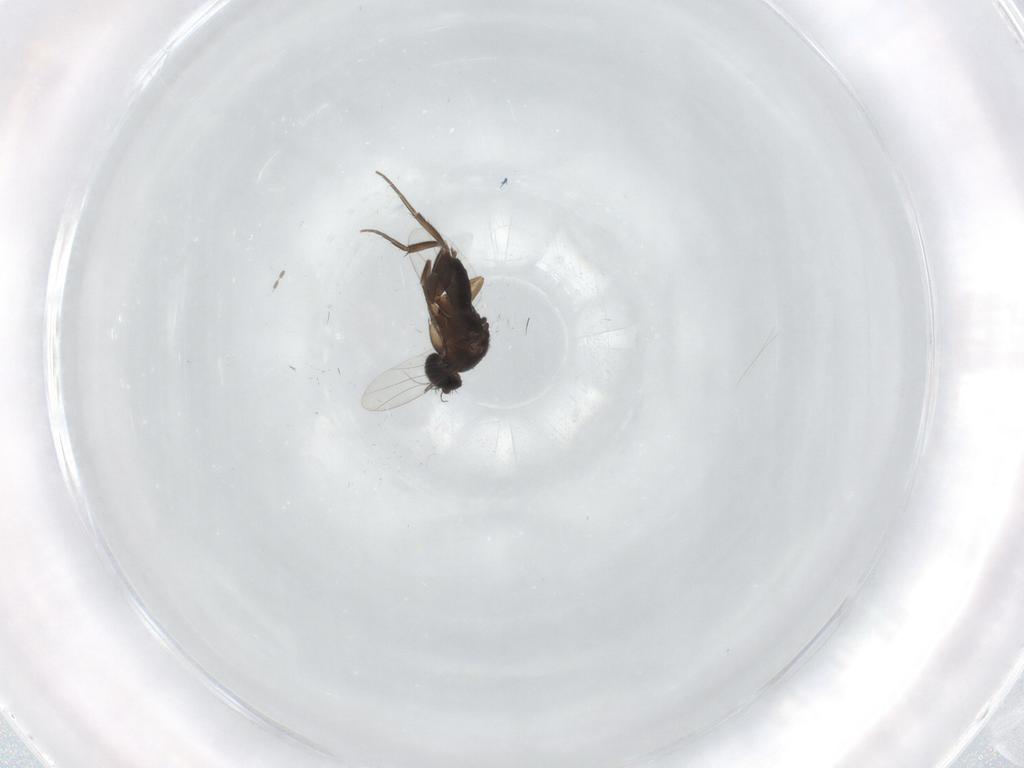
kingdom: Animalia
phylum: Arthropoda
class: Insecta
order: Diptera
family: Phoridae
